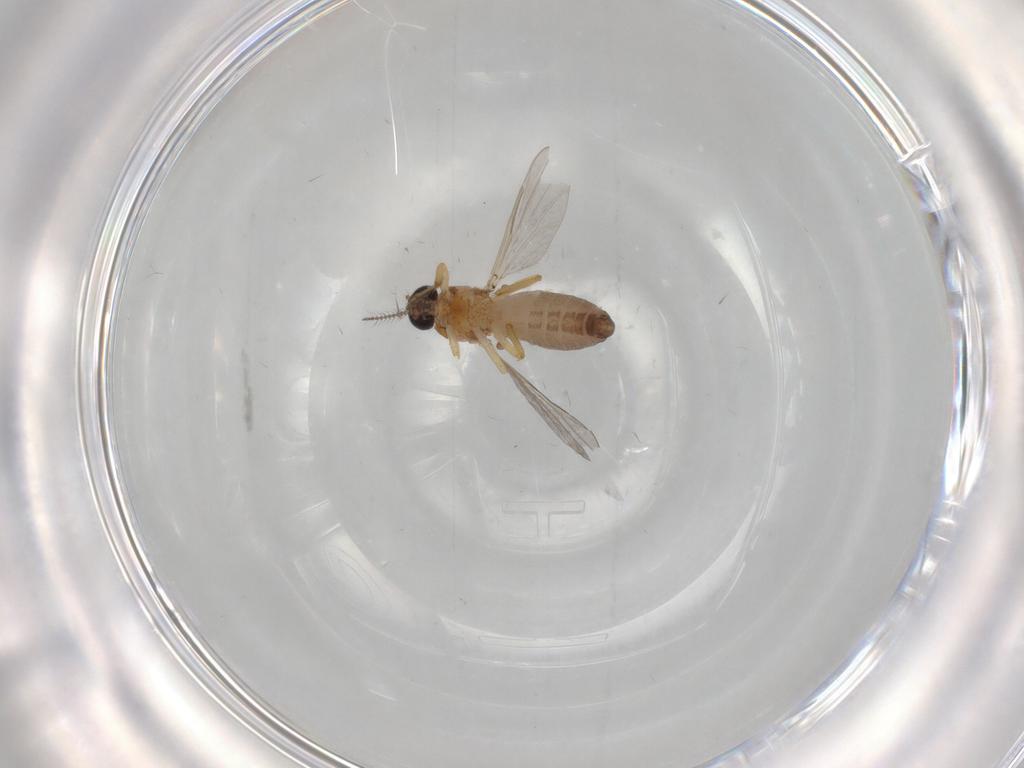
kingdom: Animalia
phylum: Arthropoda
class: Insecta
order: Diptera
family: Ceratopogonidae
